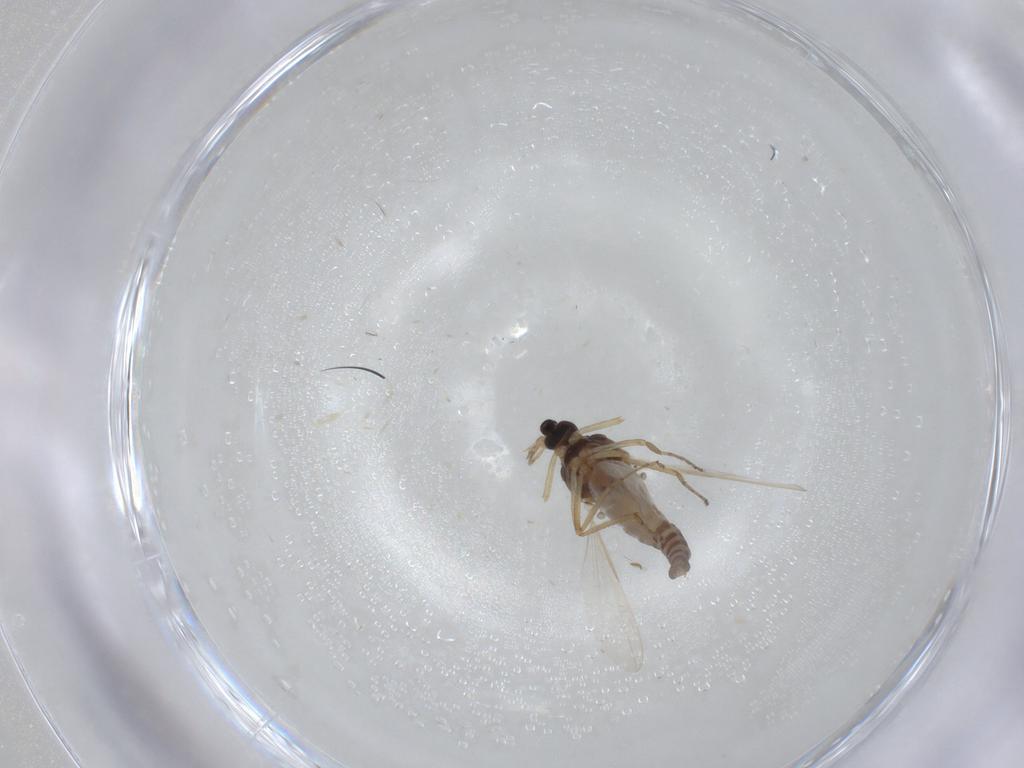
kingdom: Animalia
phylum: Arthropoda
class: Insecta
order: Diptera
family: Ceratopogonidae
